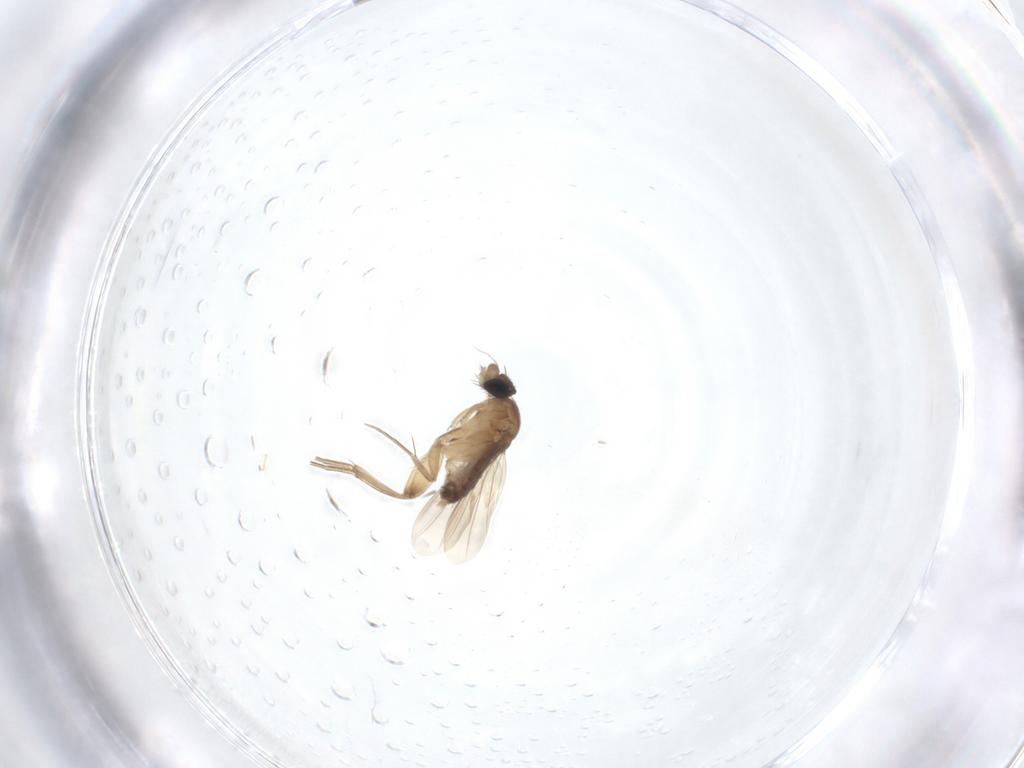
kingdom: Animalia
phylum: Arthropoda
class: Insecta
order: Diptera
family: Phoridae
